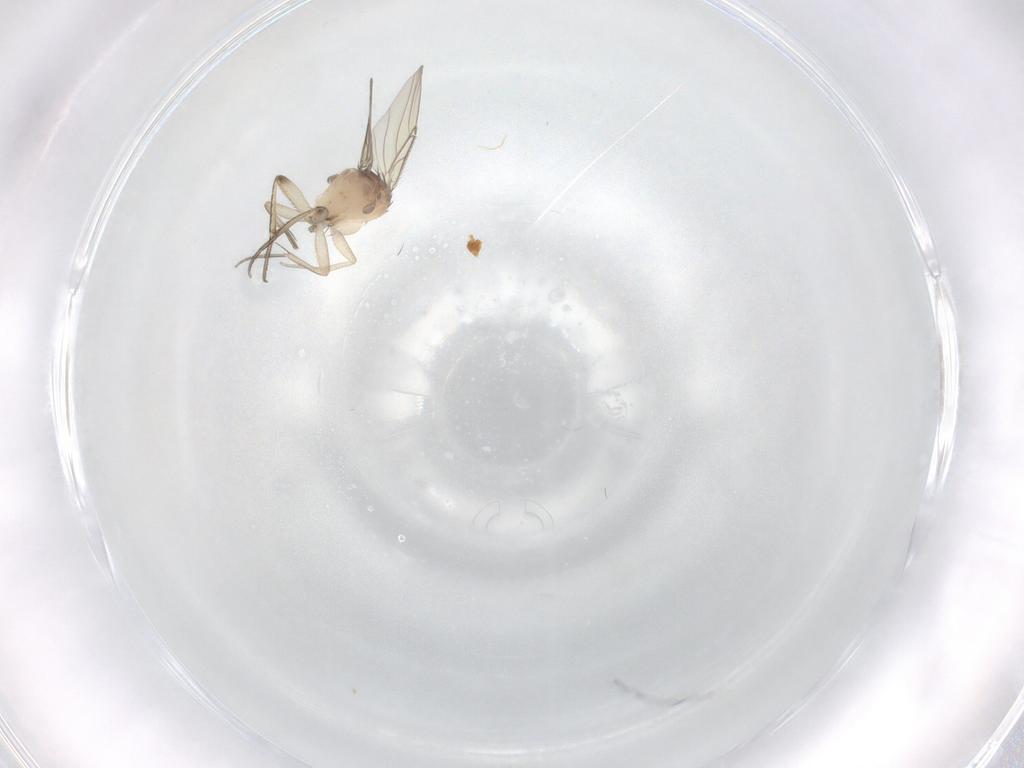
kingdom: Animalia
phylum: Arthropoda
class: Insecta
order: Diptera
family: Phoridae
